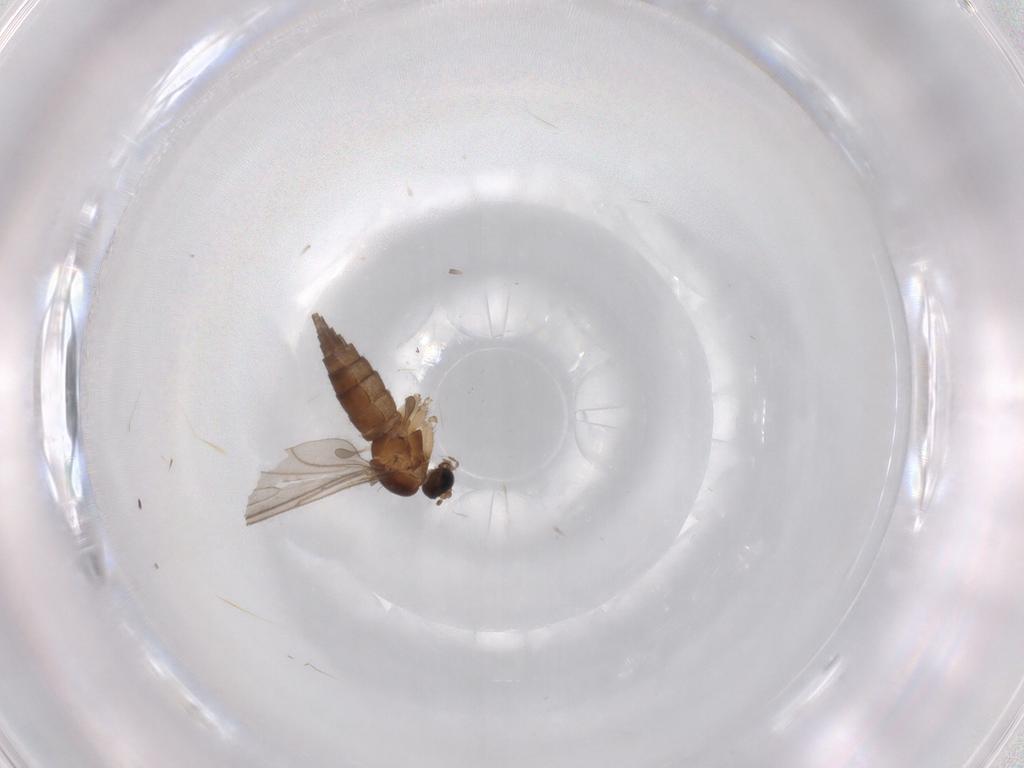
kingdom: Animalia
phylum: Arthropoda
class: Insecta
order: Diptera
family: Sciaridae
